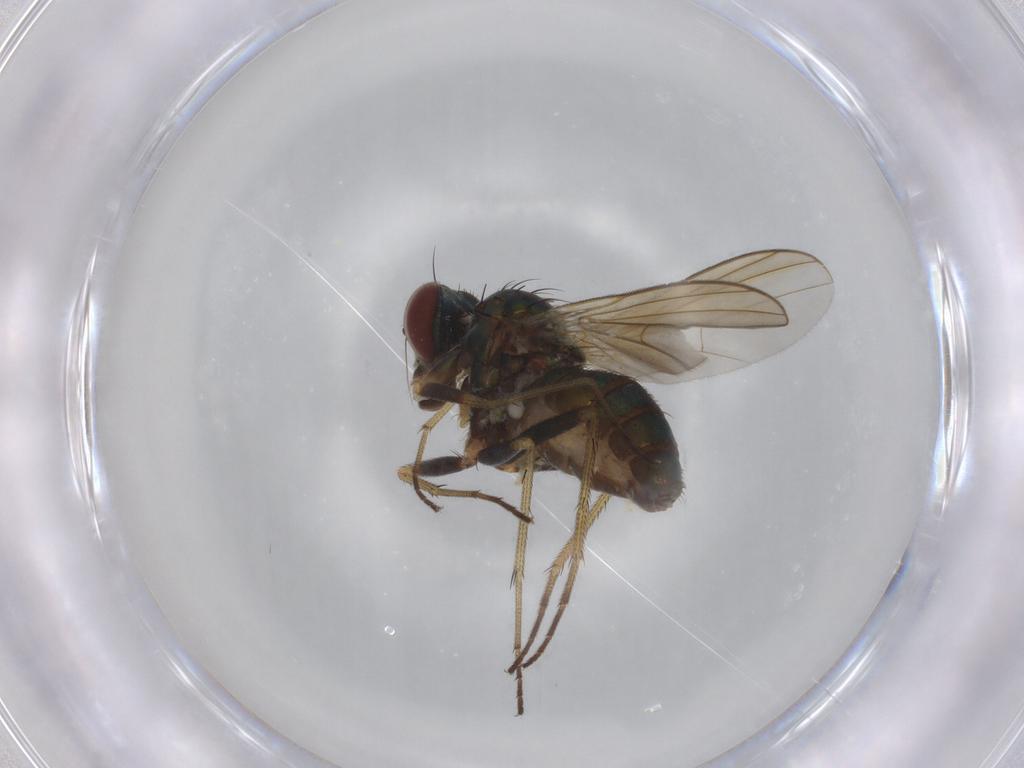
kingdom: Animalia
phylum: Arthropoda
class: Insecta
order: Diptera
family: Dolichopodidae
